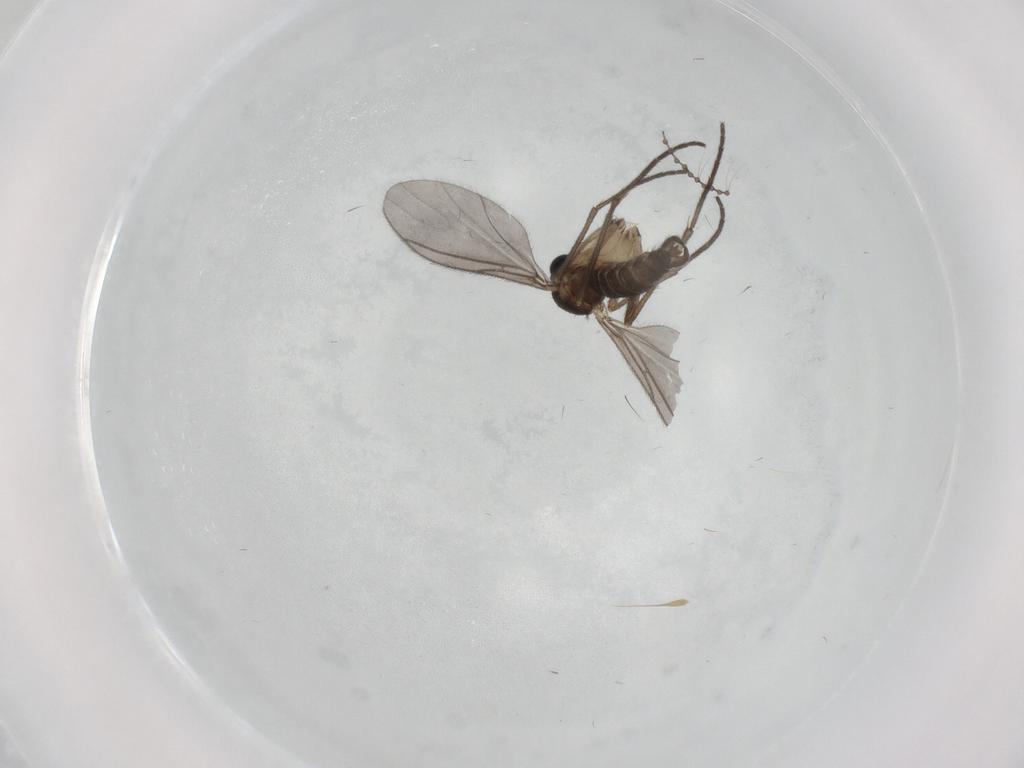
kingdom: Animalia
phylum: Arthropoda
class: Insecta
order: Diptera
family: Sciaridae
